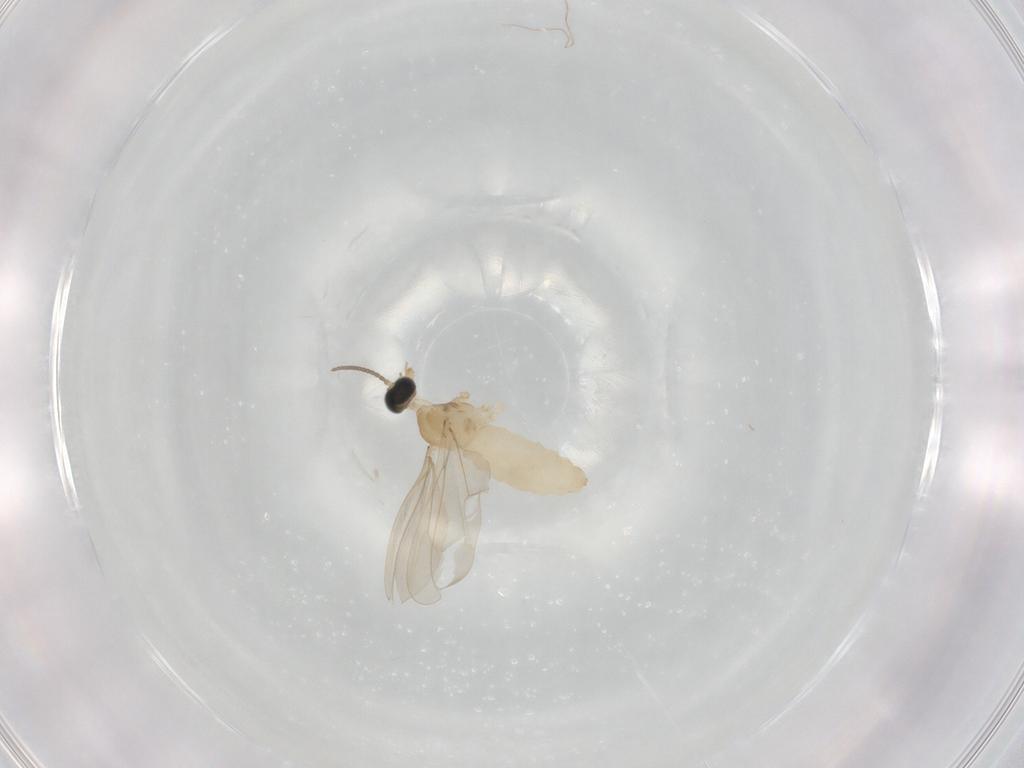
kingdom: Animalia
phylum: Arthropoda
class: Insecta
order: Diptera
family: Cecidomyiidae
